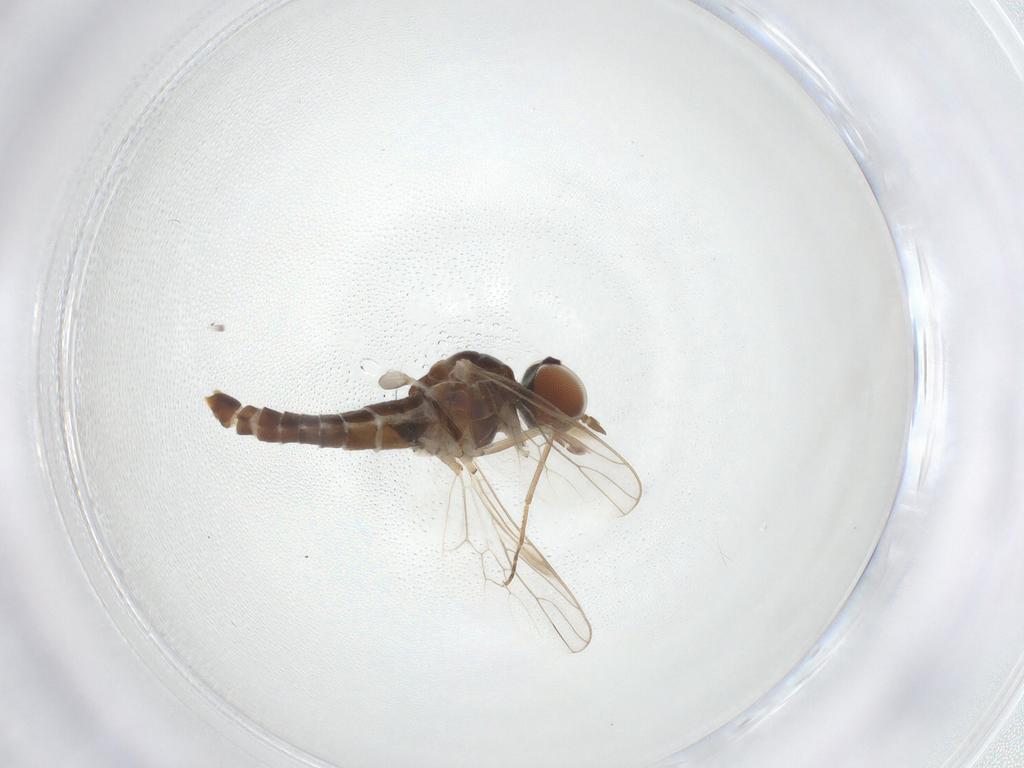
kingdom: Animalia
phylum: Arthropoda
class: Insecta
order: Diptera
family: Scenopinidae
